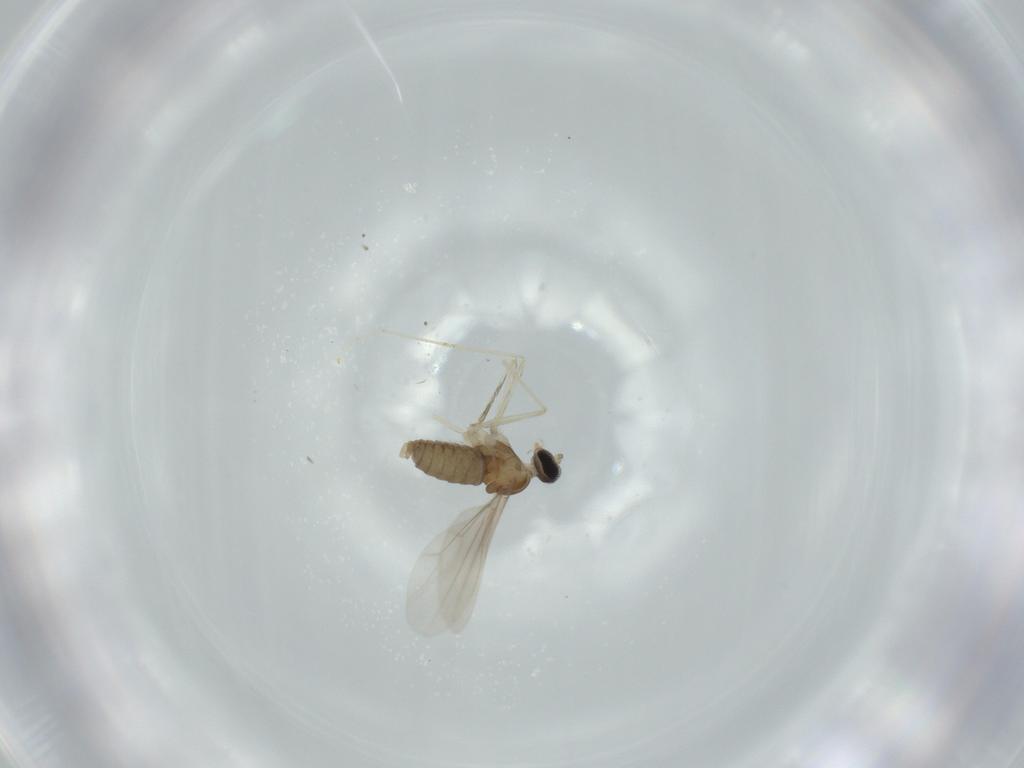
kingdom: Animalia
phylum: Arthropoda
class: Insecta
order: Diptera
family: Cecidomyiidae
